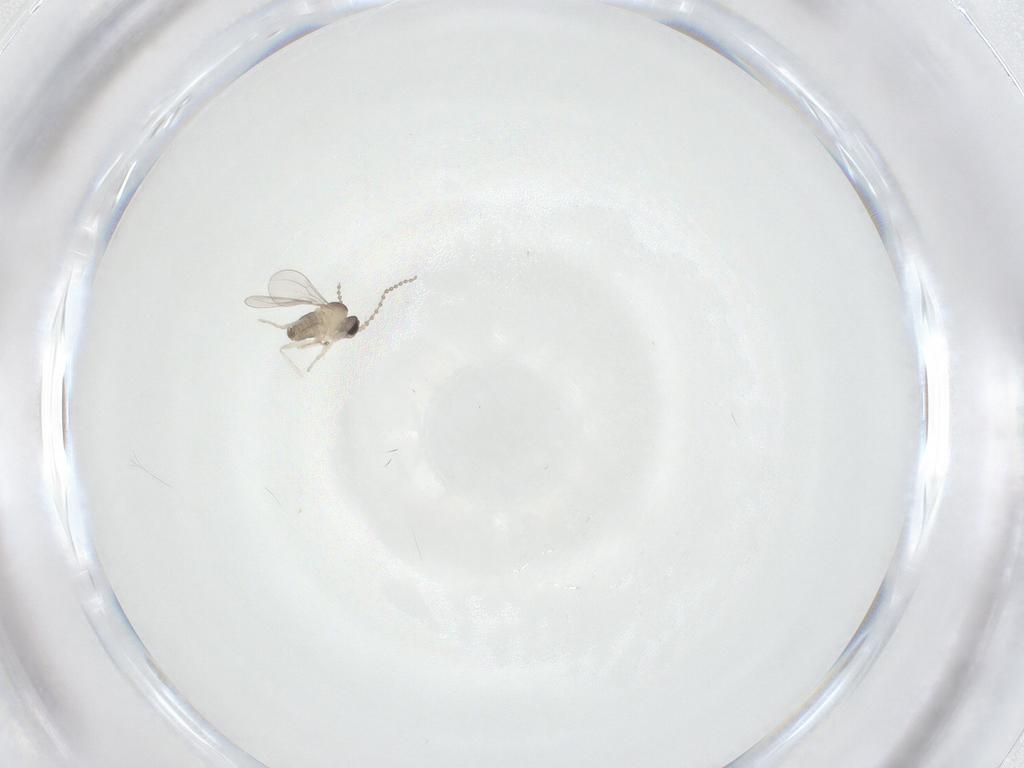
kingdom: Animalia
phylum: Arthropoda
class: Insecta
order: Diptera
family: Cecidomyiidae
